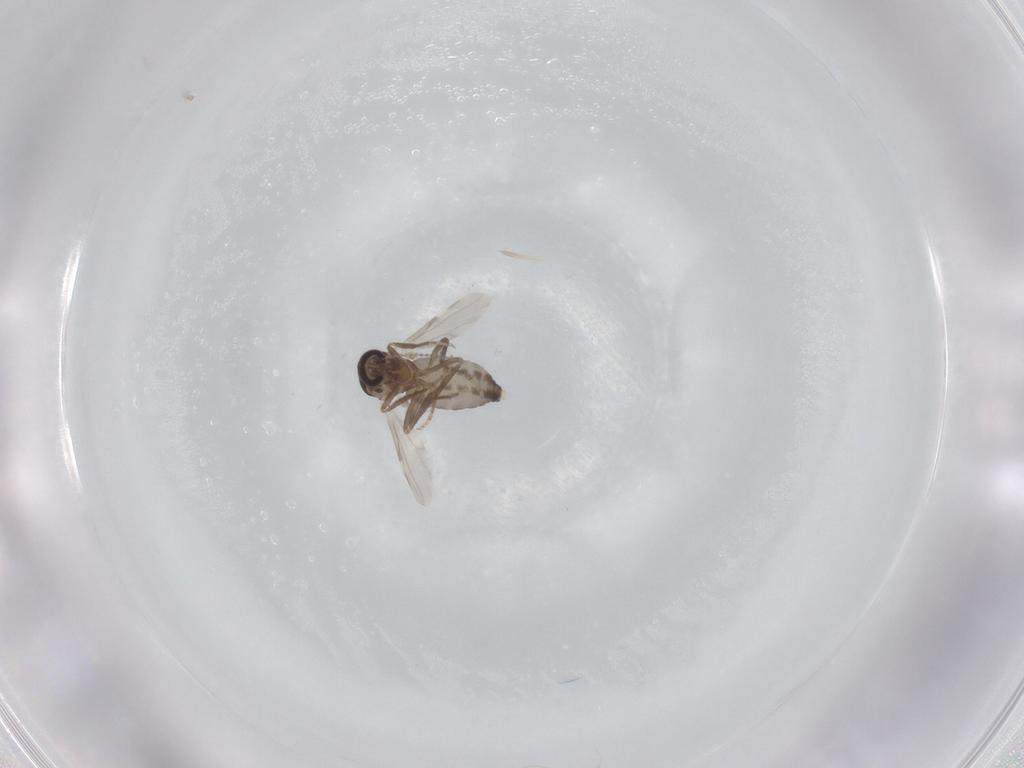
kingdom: Animalia
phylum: Arthropoda
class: Insecta
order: Diptera
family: Ceratopogonidae
